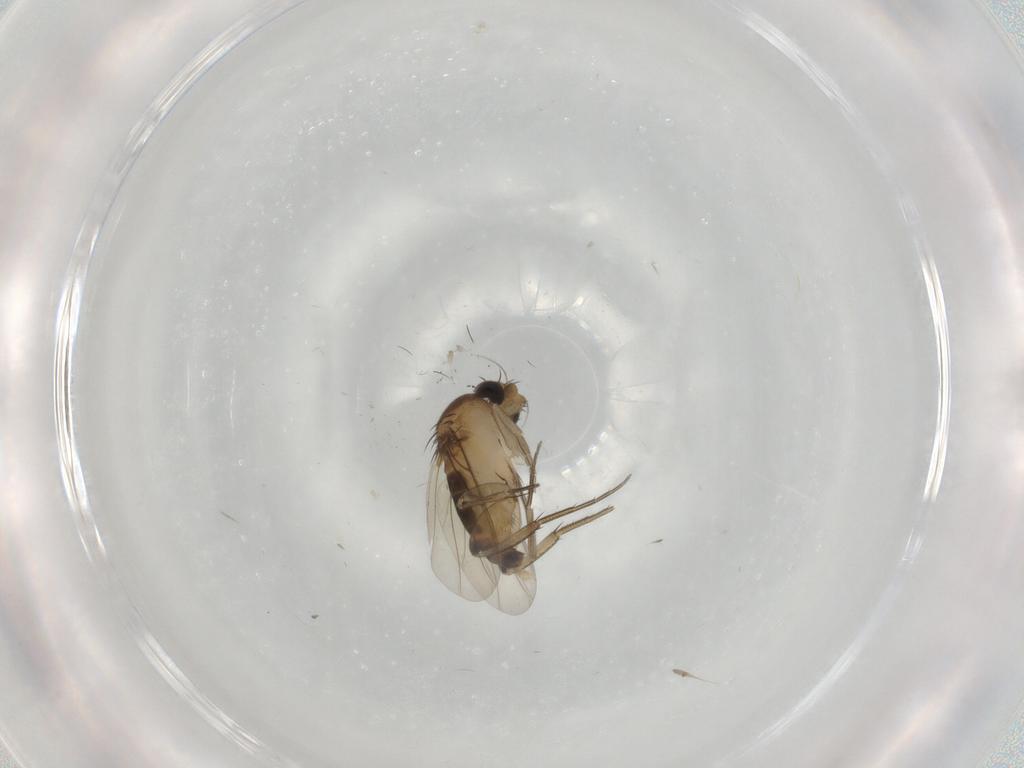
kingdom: Animalia
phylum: Arthropoda
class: Insecta
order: Diptera
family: Phoridae
